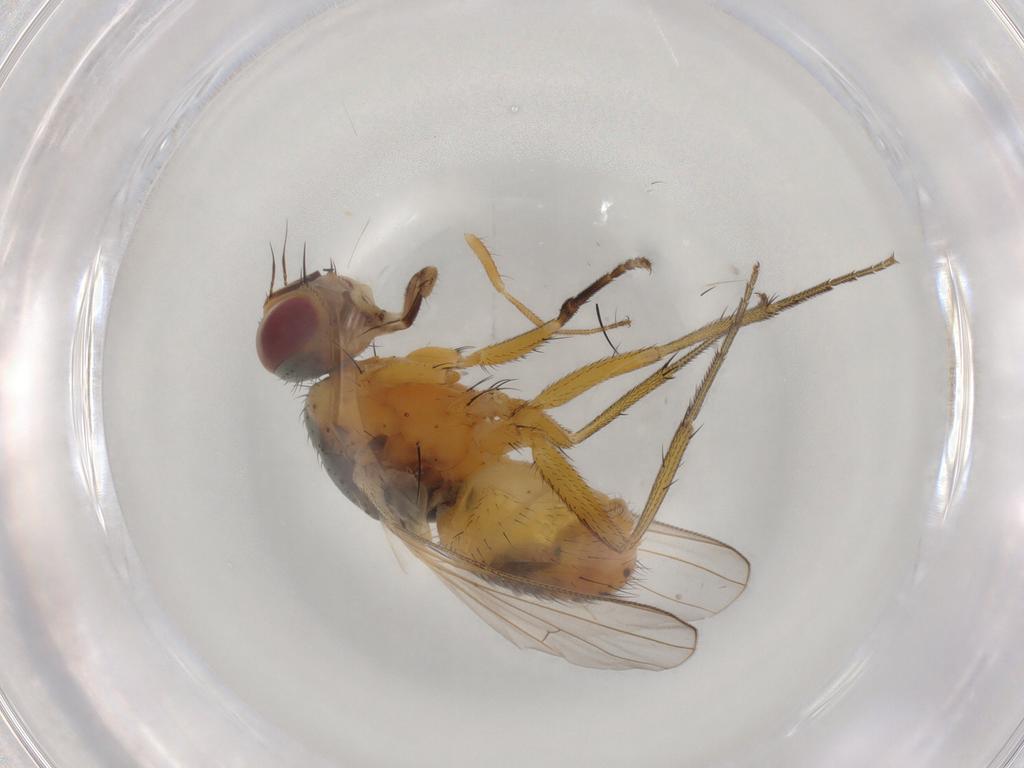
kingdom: Animalia
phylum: Arthropoda
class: Insecta
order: Diptera
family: Muscidae
